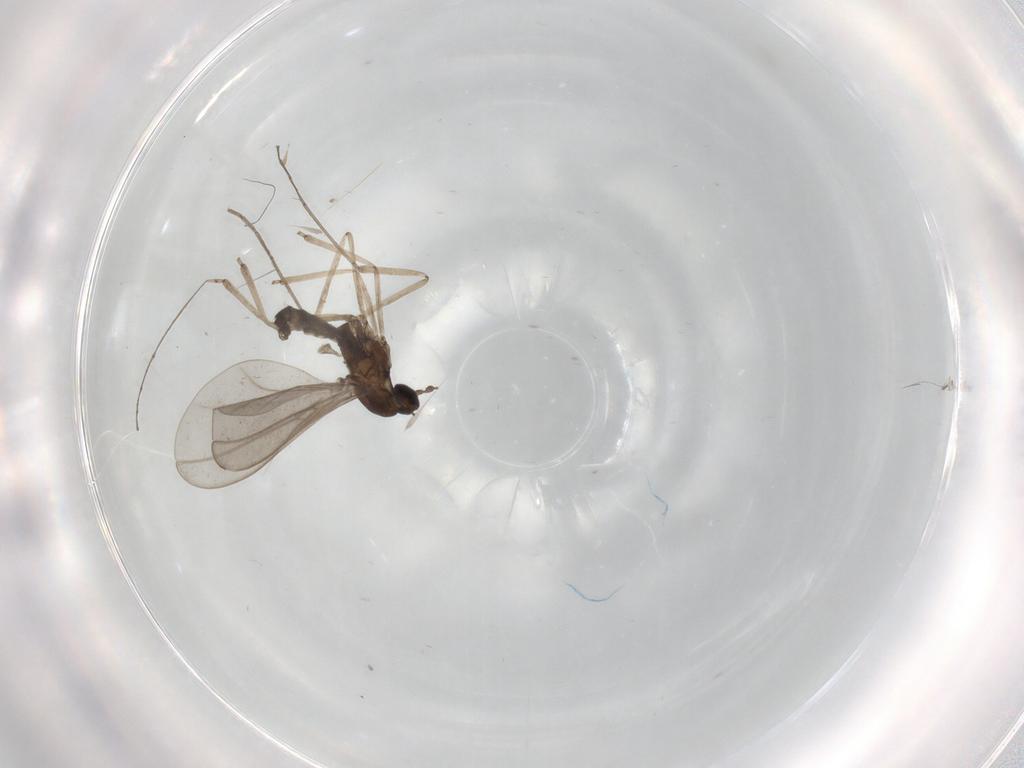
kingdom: Animalia
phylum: Arthropoda
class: Insecta
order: Diptera
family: Cecidomyiidae
